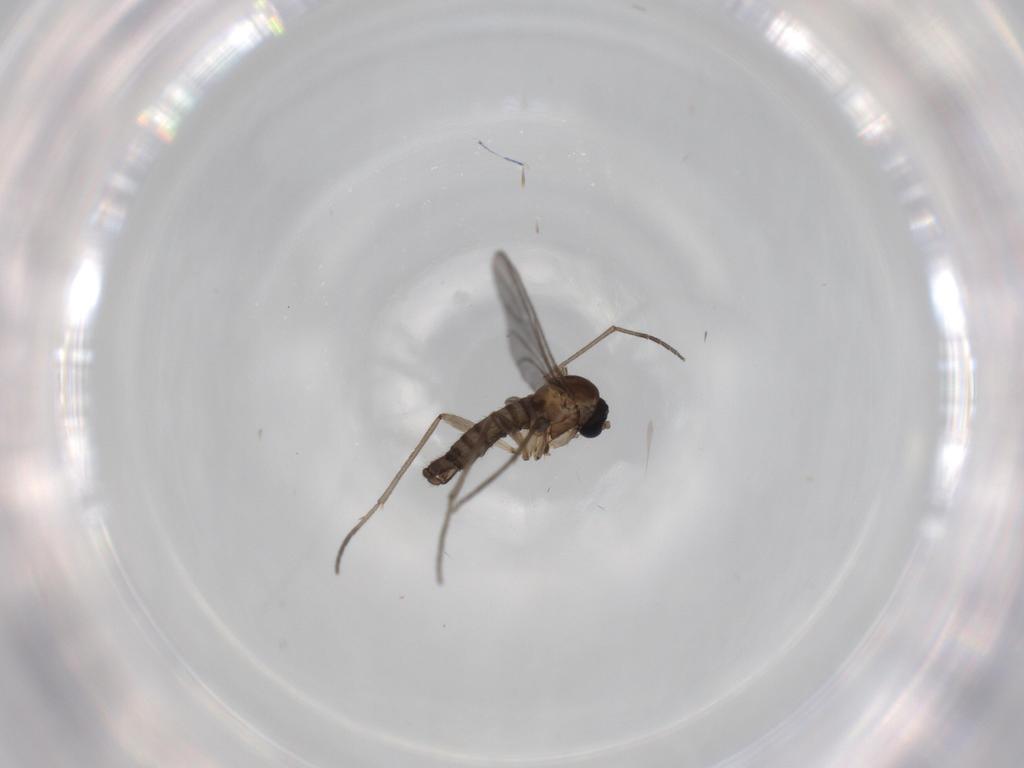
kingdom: Animalia
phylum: Arthropoda
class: Insecta
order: Diptera
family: Sciaridae
